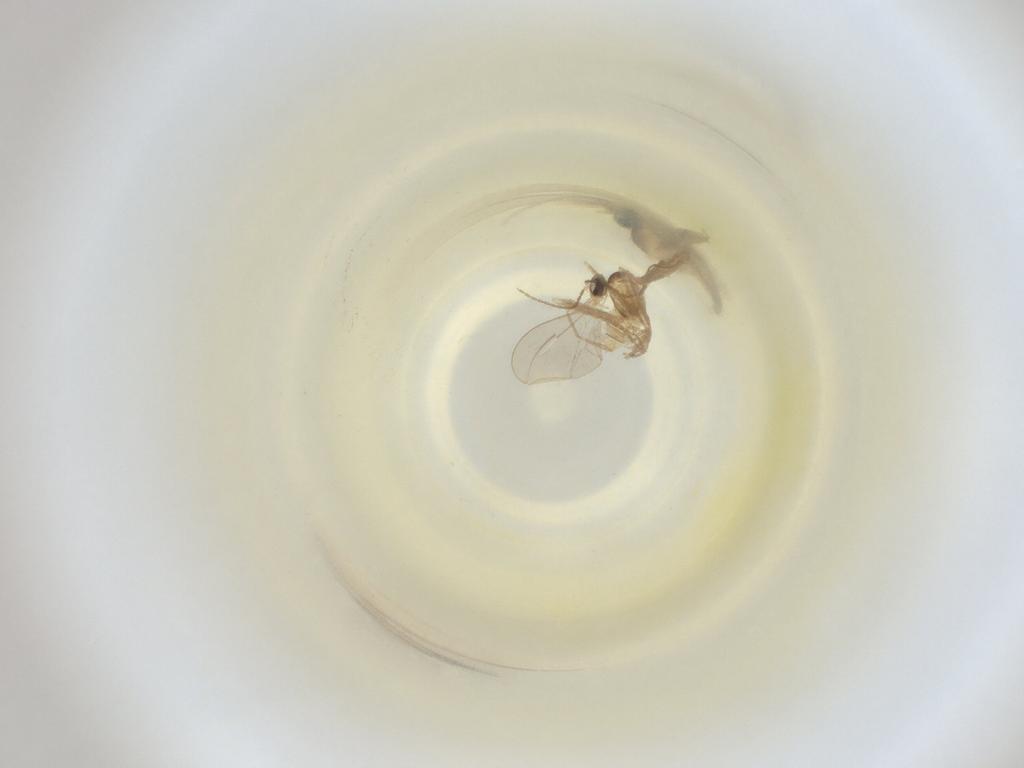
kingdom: Animalia
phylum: Arthropoda
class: Insecta
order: Diptera
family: Cecidomyiidae
